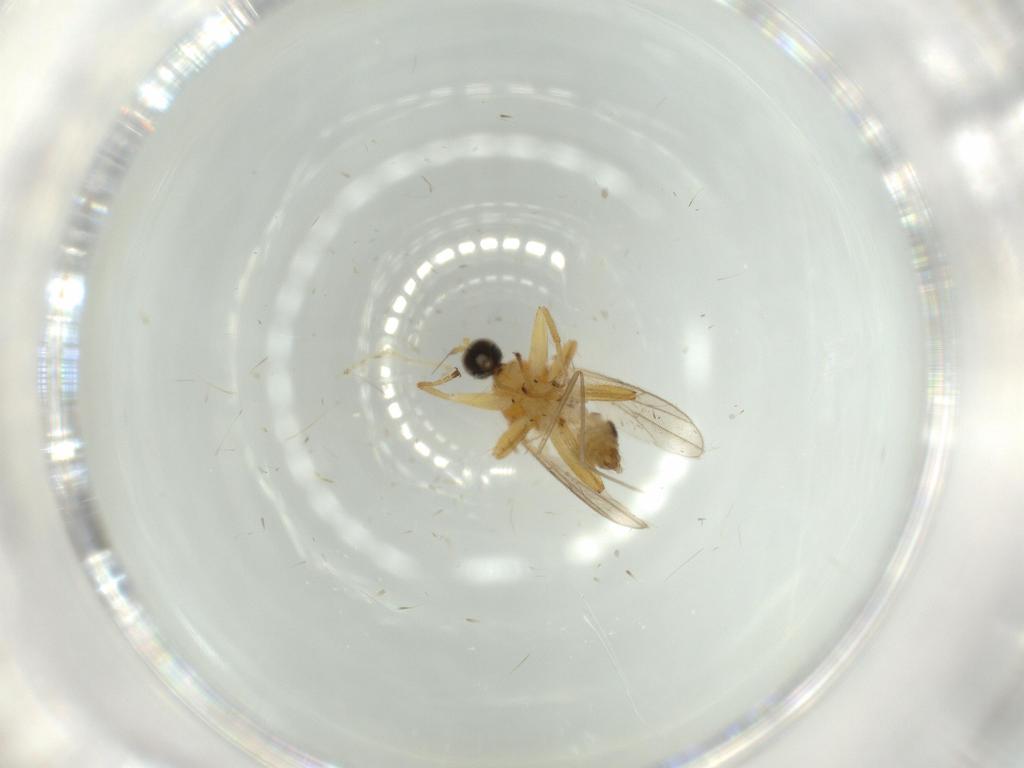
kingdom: Animalia
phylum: Arthropoda
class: Insecta
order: Diptera
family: Hybotidae
